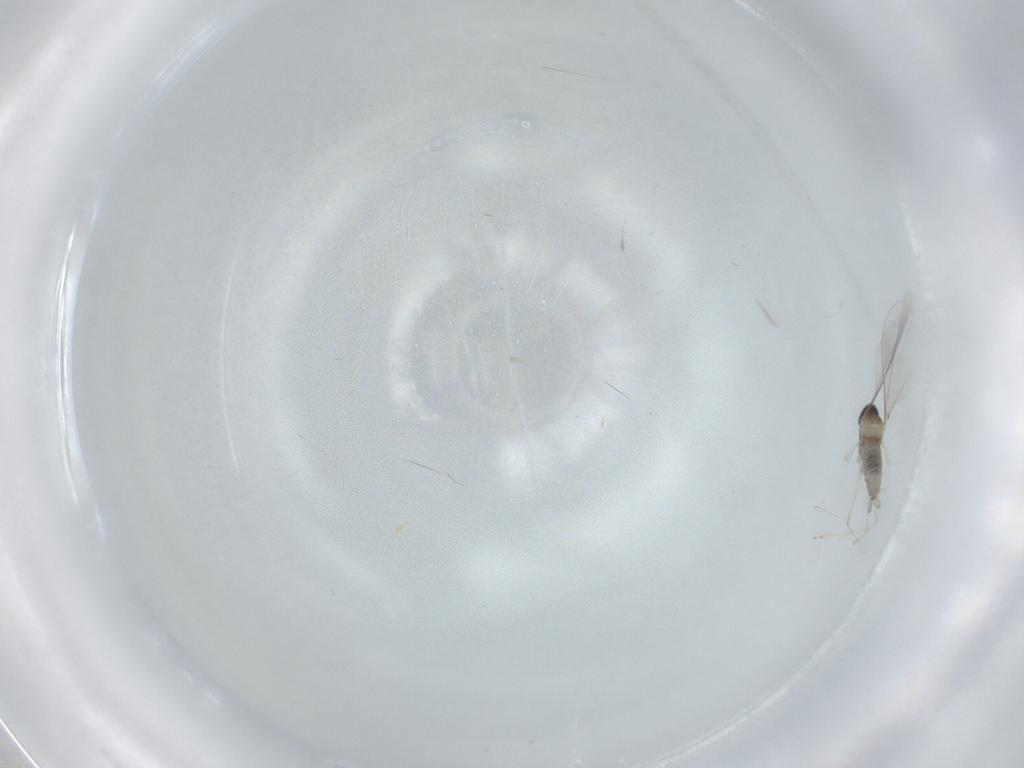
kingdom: Animalia
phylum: Arthropoda
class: Insecta
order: Diptera
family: Cecidomyiidae
